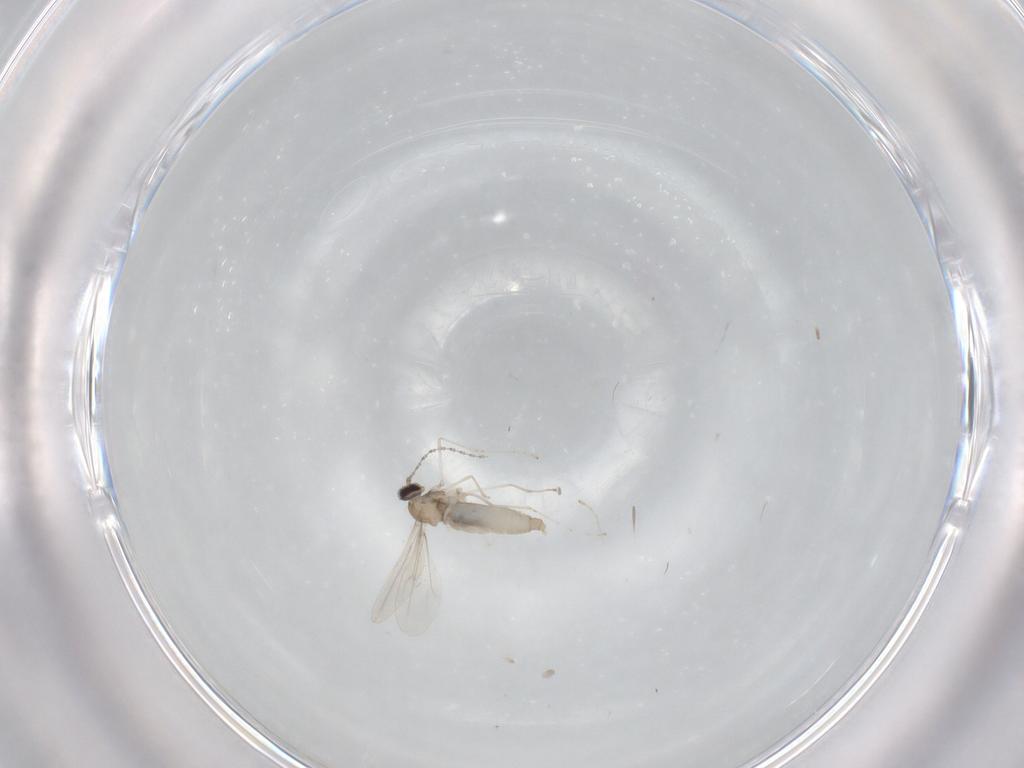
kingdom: Animalia
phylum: Arthropoda
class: Insecta
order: Diptera
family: Cecidomyiidae
